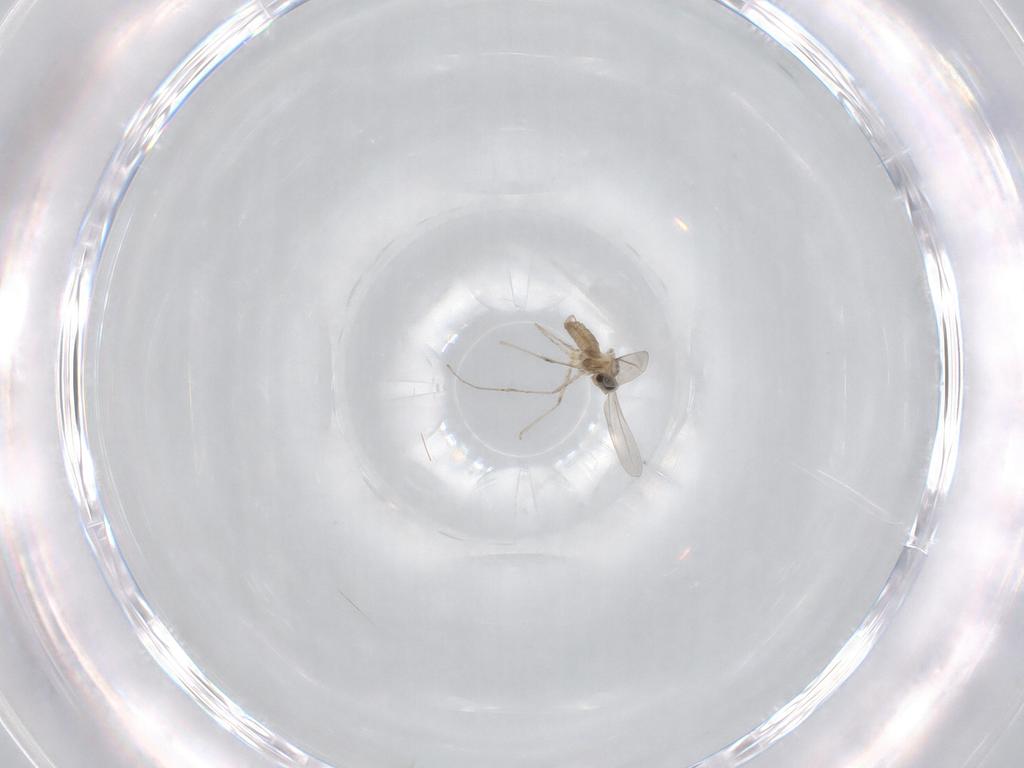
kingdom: Animalia
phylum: Arthropoda
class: Insecta
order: Diptera
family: Cecidomyiidae
